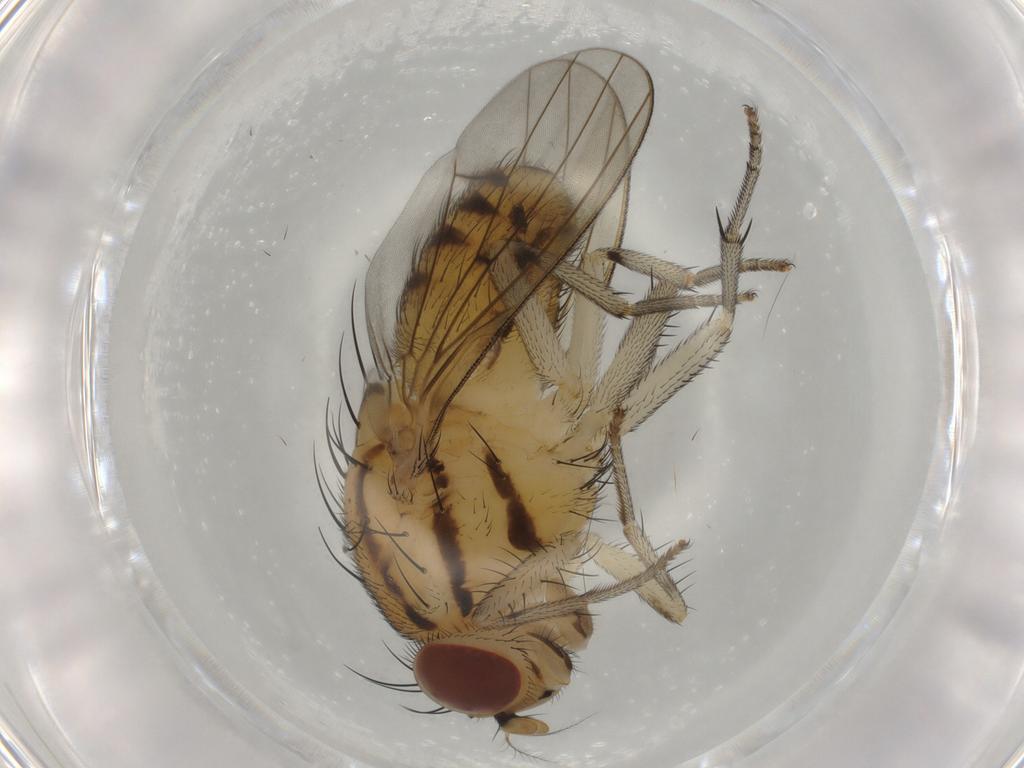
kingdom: Animalia
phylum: Arthropoda
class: Insecta
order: Diptera
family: Lauxaniidae
